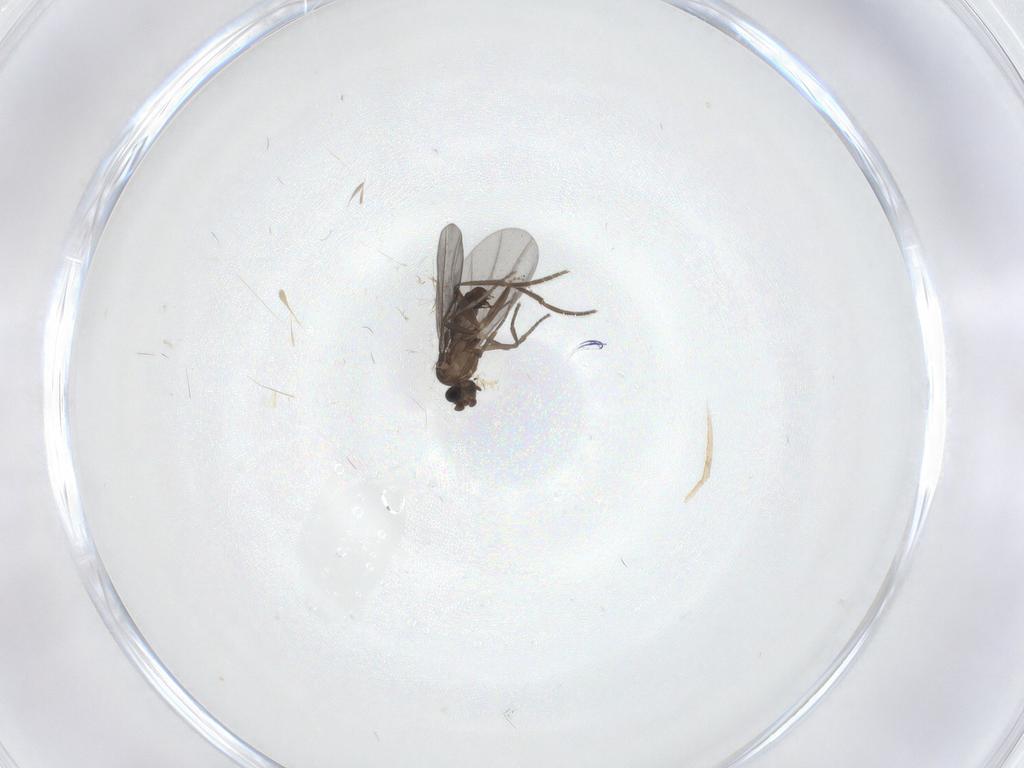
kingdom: Animalia
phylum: Arthropoda
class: Insecta
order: Diptera
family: Phoridae
